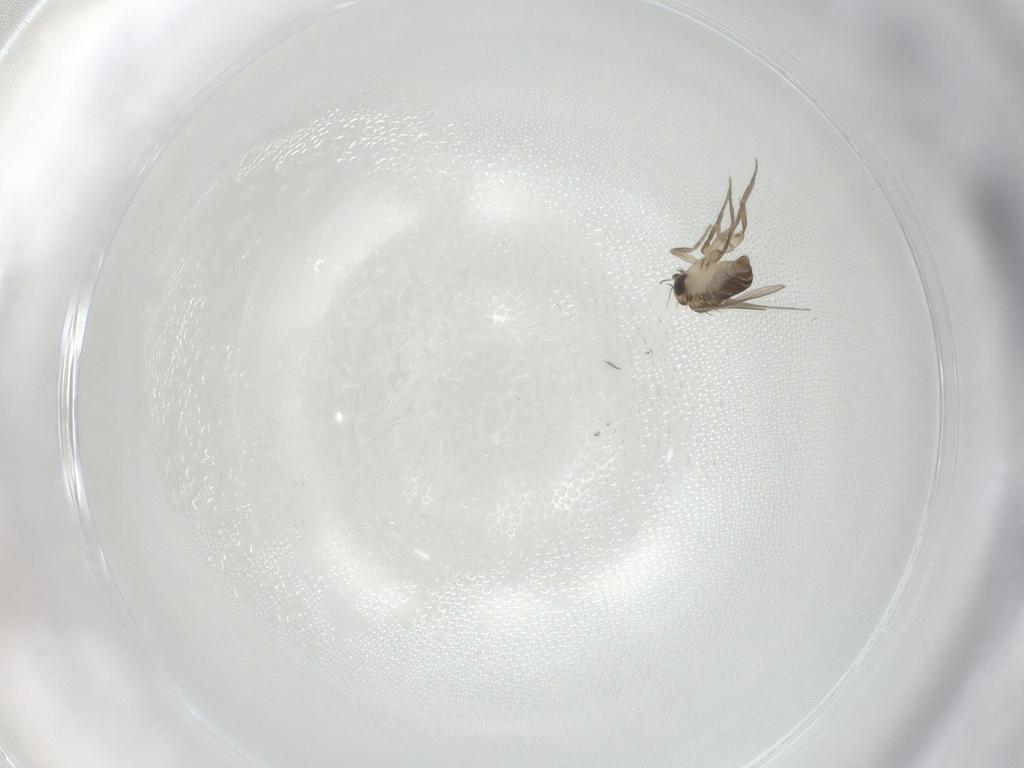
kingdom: Animalia
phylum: Arthropoda
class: Insecta
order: Diptera
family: Phoridae
